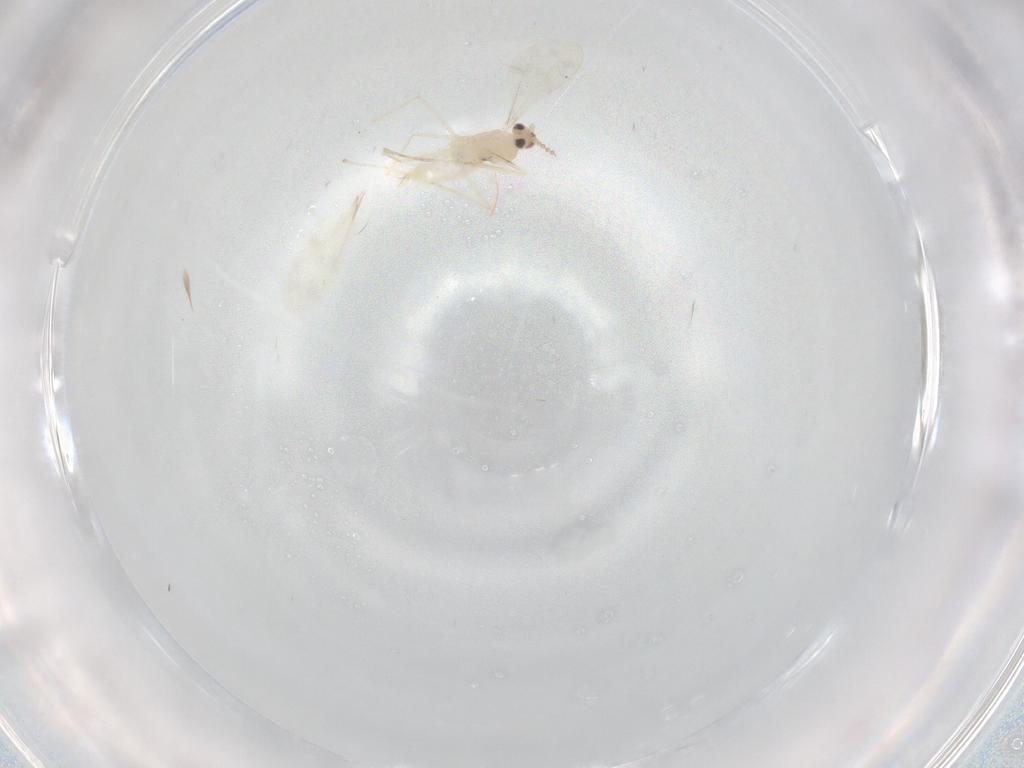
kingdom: Animalia
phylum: Arthropoda
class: Insecta
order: Diptera
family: Cecidomyiidae
